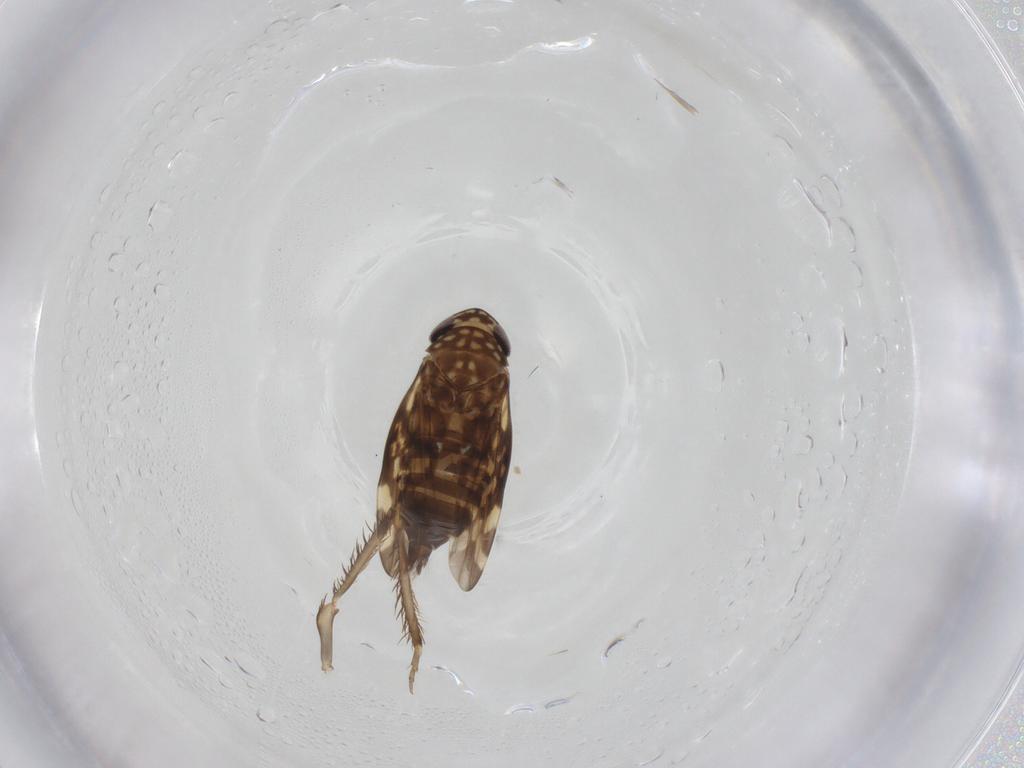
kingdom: Animalia
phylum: Arthropoda
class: Insecta
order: Hemiptera
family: Cicadellidae
